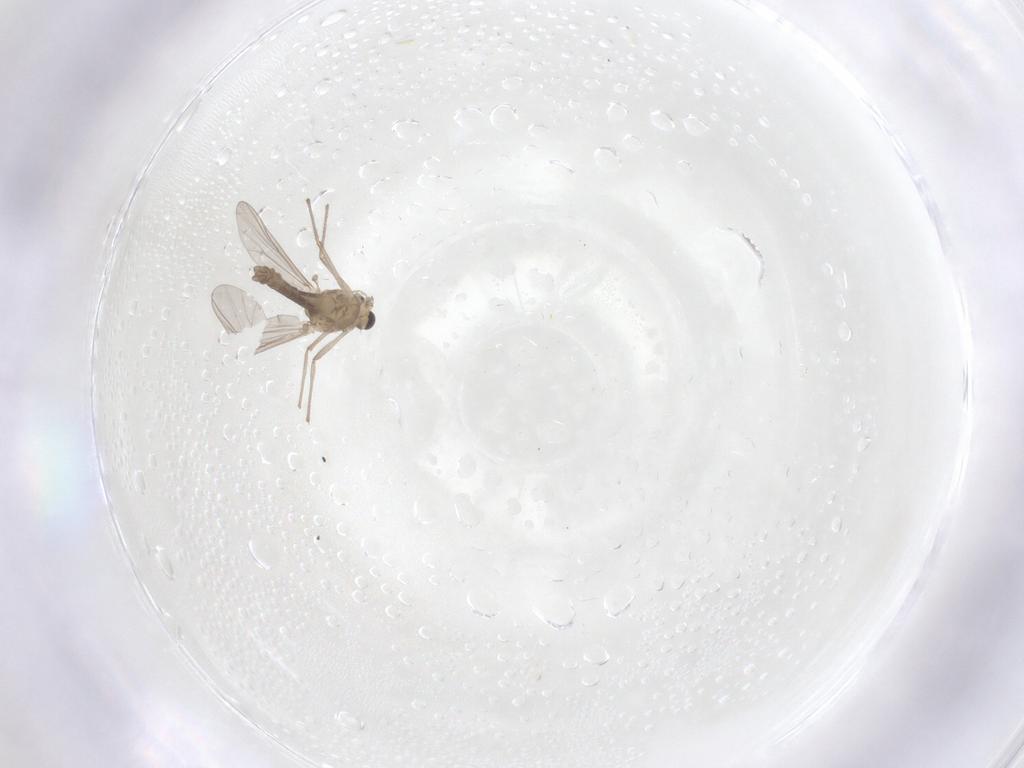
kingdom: Animalia
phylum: Arthropoda
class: Insecta
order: Diptera
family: Chironomidae
